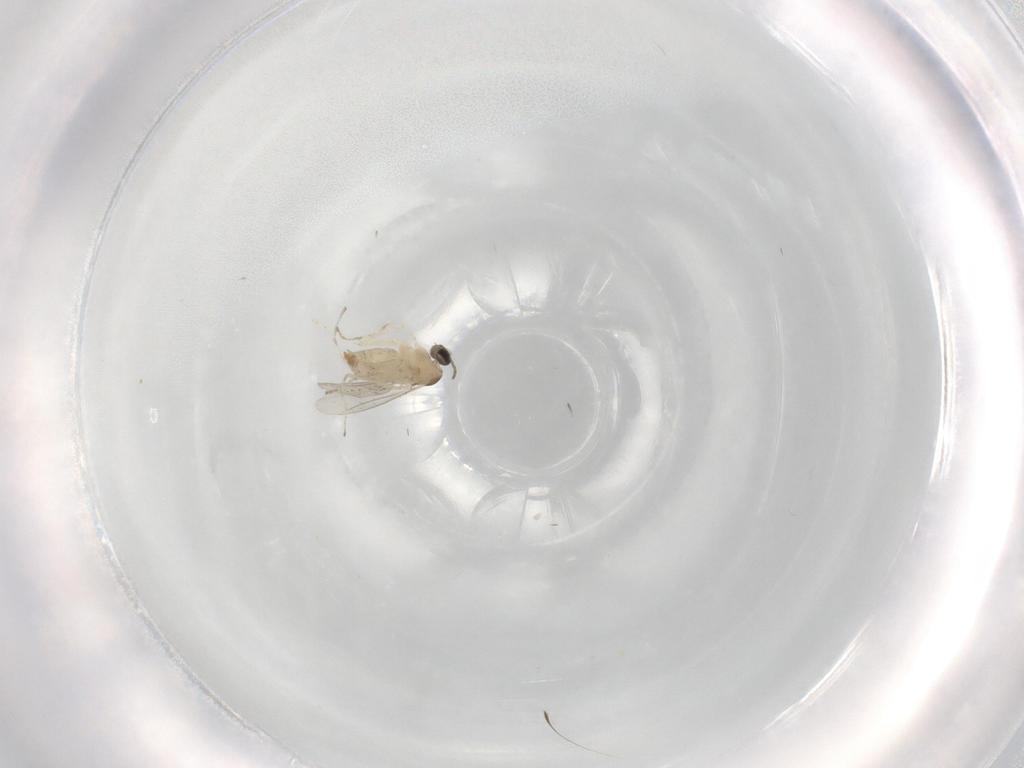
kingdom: Animalia
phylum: Arthropoda
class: Insecta
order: Diptera
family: Cecidomyiidae
